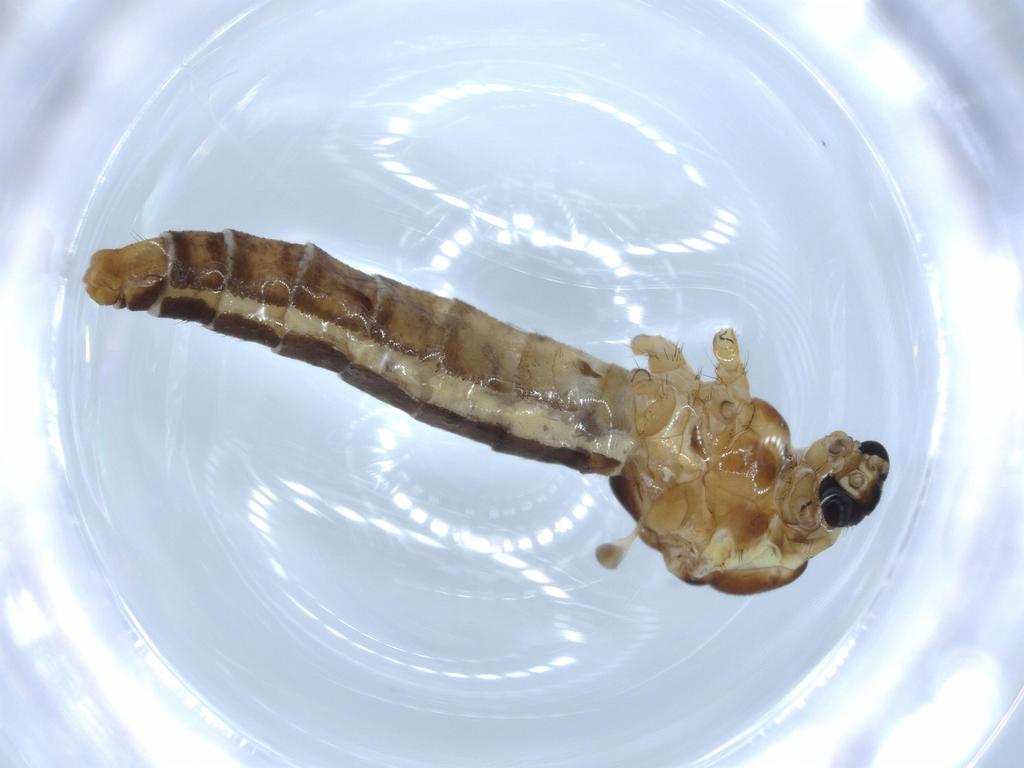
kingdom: Animalia
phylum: Arthropoda
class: Insecta
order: Diptera
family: Limoniidae
